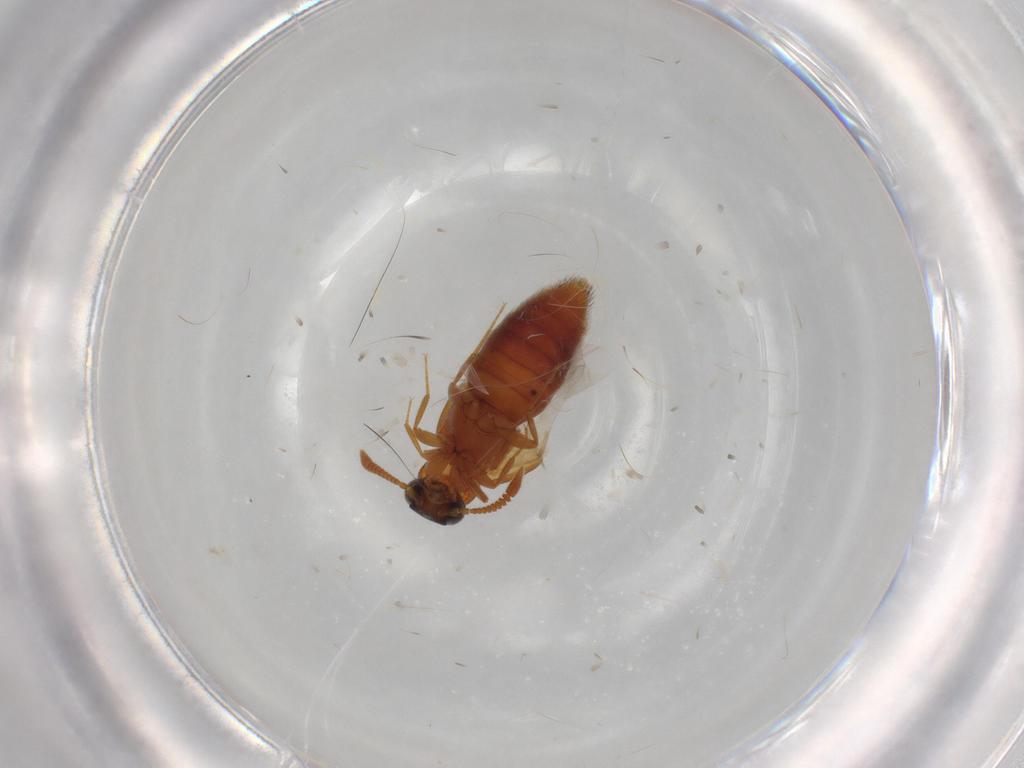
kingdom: Animalia
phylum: Arthropoda
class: Insecta
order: Coleoptera
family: Staphylinidae
